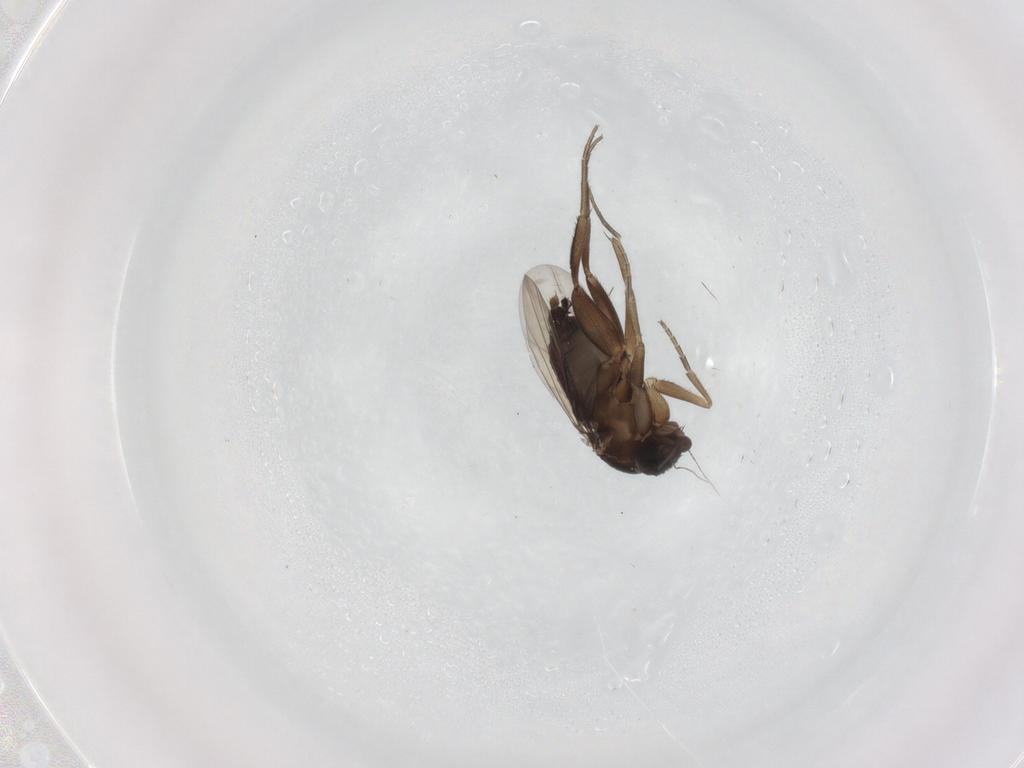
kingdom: Animalia
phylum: Arthropoda
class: Insecta
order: Diptera
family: Phoridae
